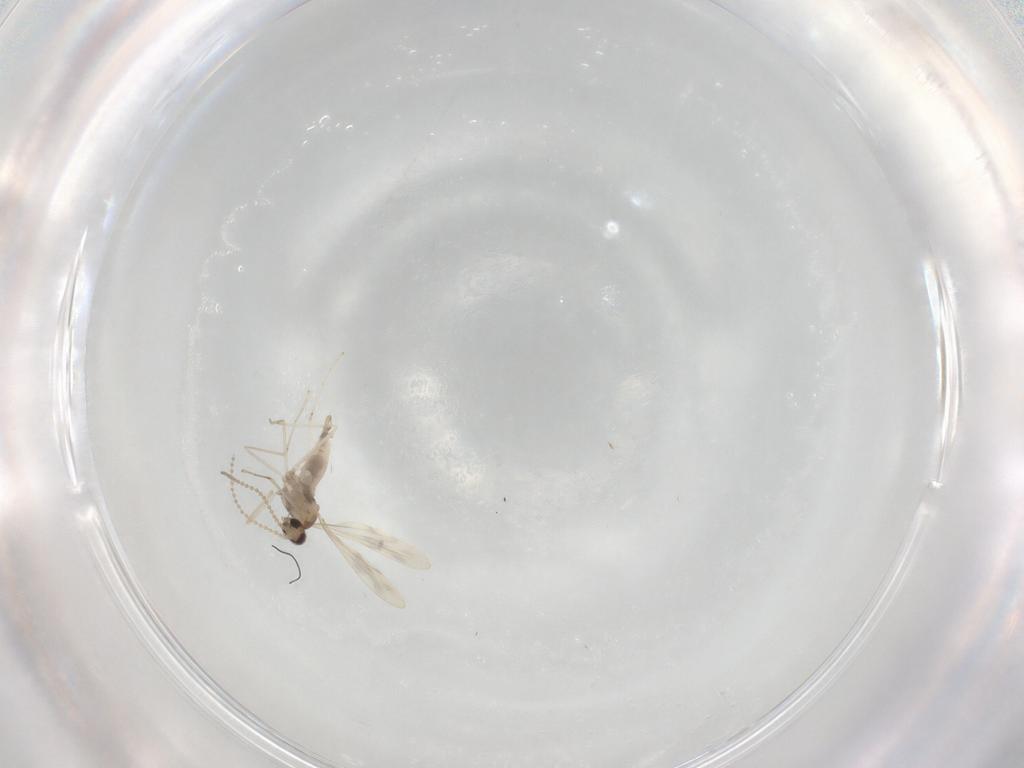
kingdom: Animalia
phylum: Arthropoda
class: Insecta
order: Diptera
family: Cecidomyiidae
